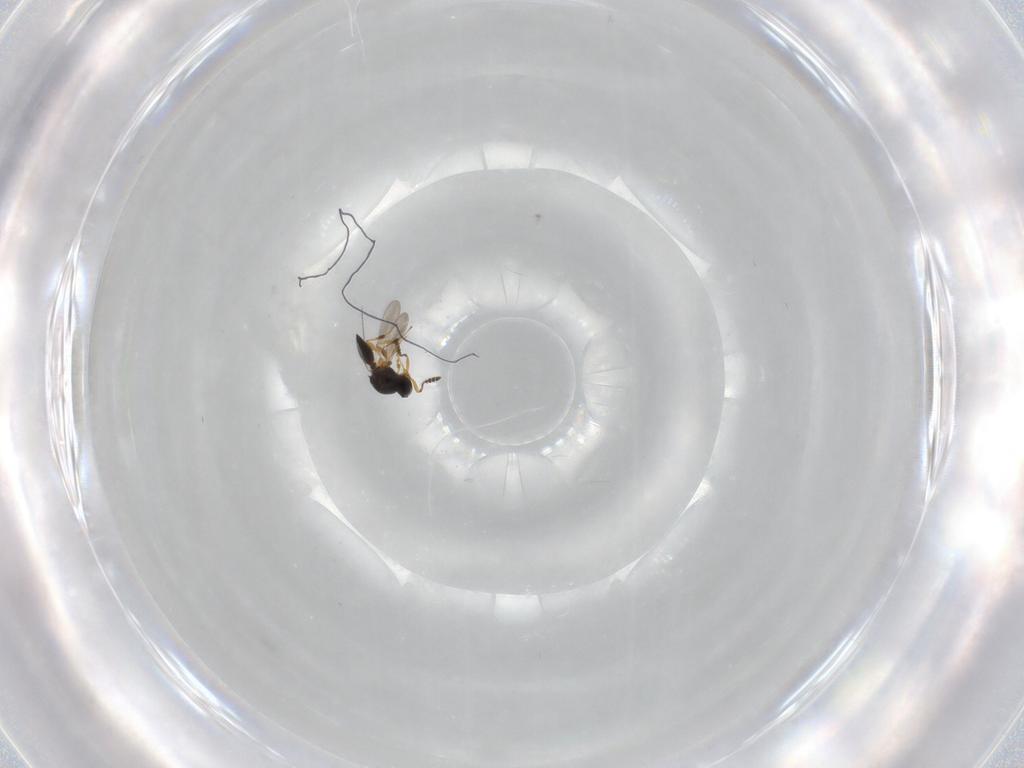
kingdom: Animalia
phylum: Arthropoda
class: Insecta
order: Hymenoptera
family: Platygastridae
